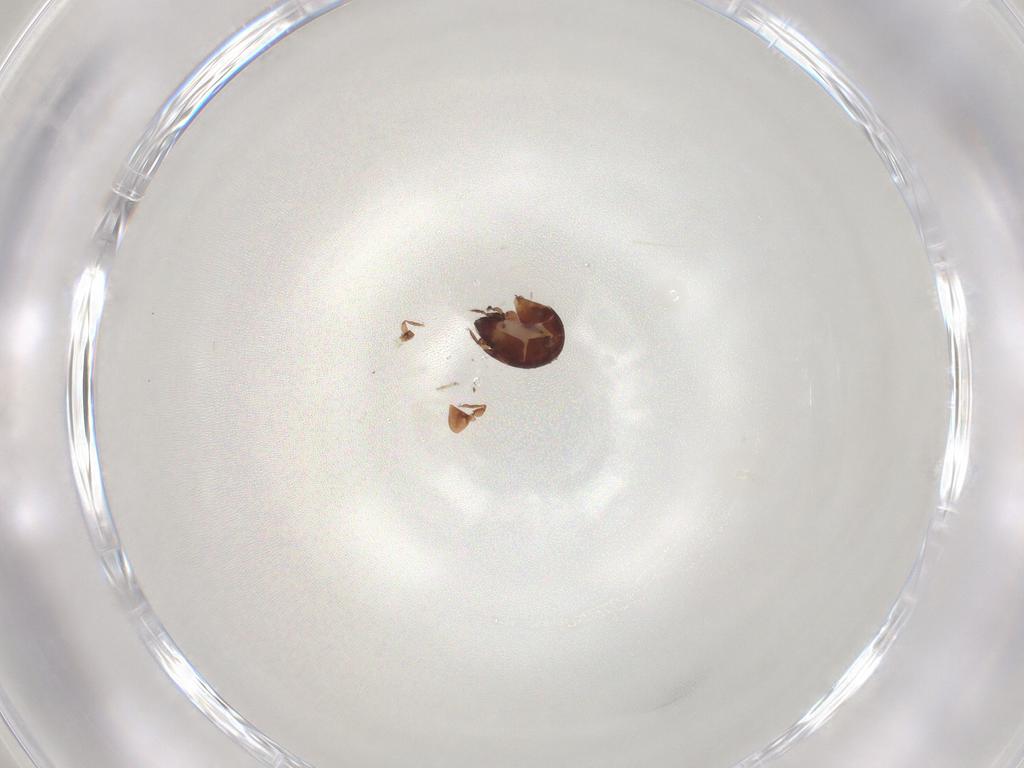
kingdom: Animalia
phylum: Arthropoda
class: Arachnida
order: Sarcoptiformes
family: Humerobatidae
